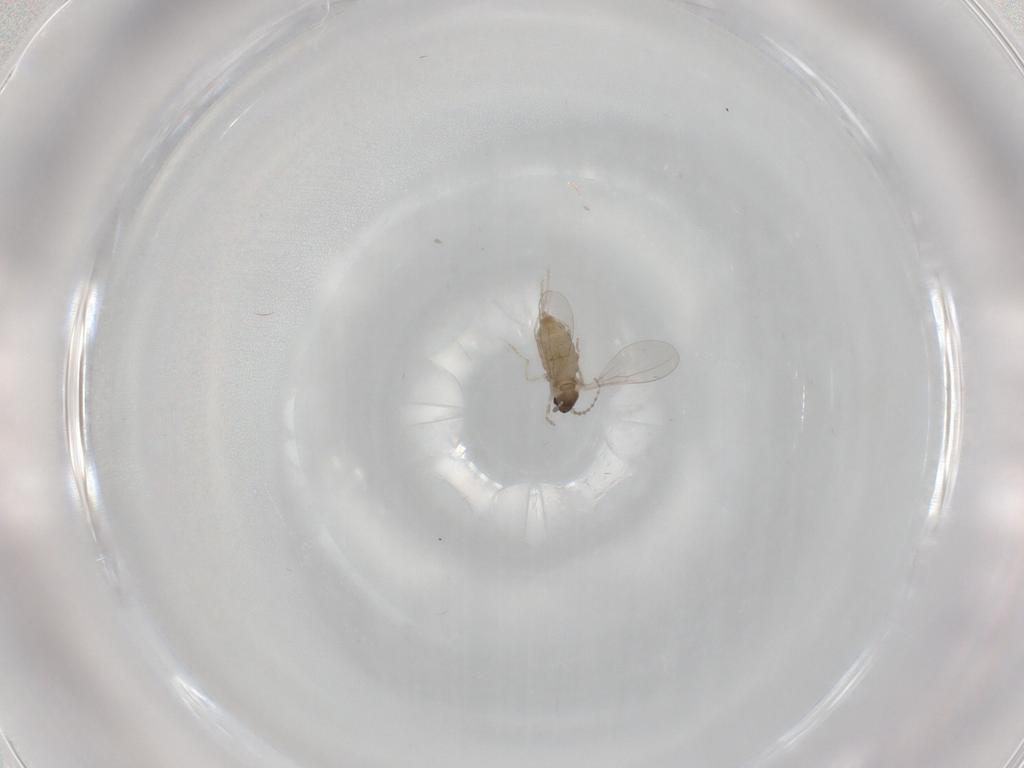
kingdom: Animalia
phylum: Arthropoda
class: Insecta
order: Diptera
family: Cecidomyiidae
